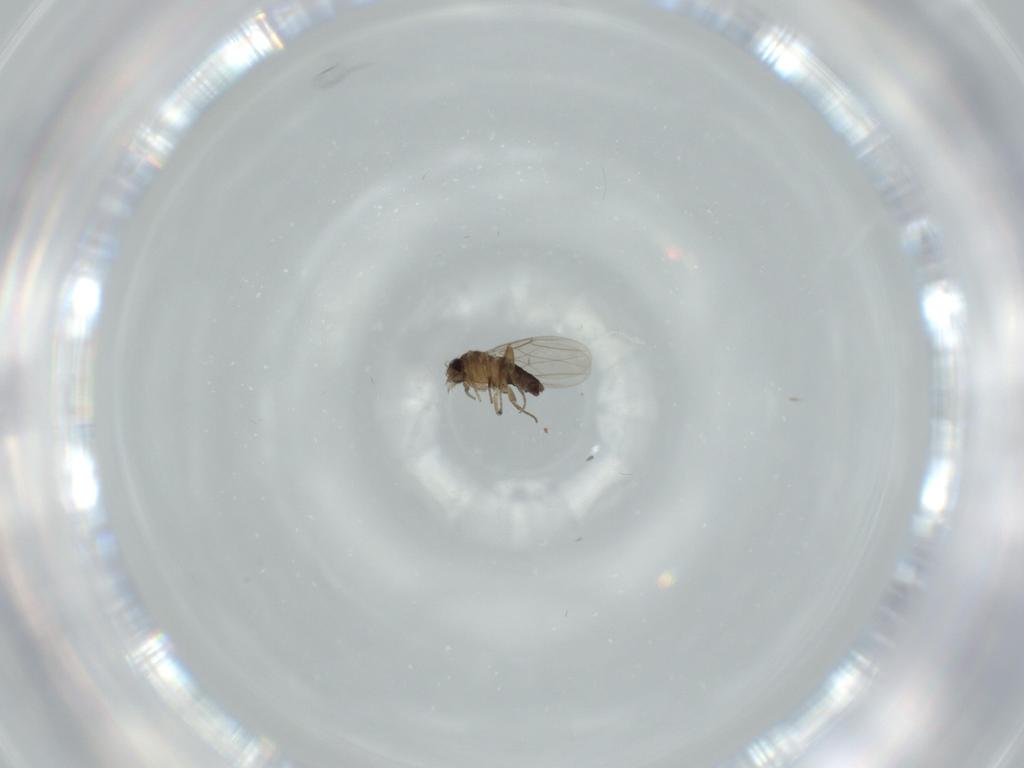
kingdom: Animalia
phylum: Arthropoda
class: Insecta
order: Diptera
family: Phoridae
